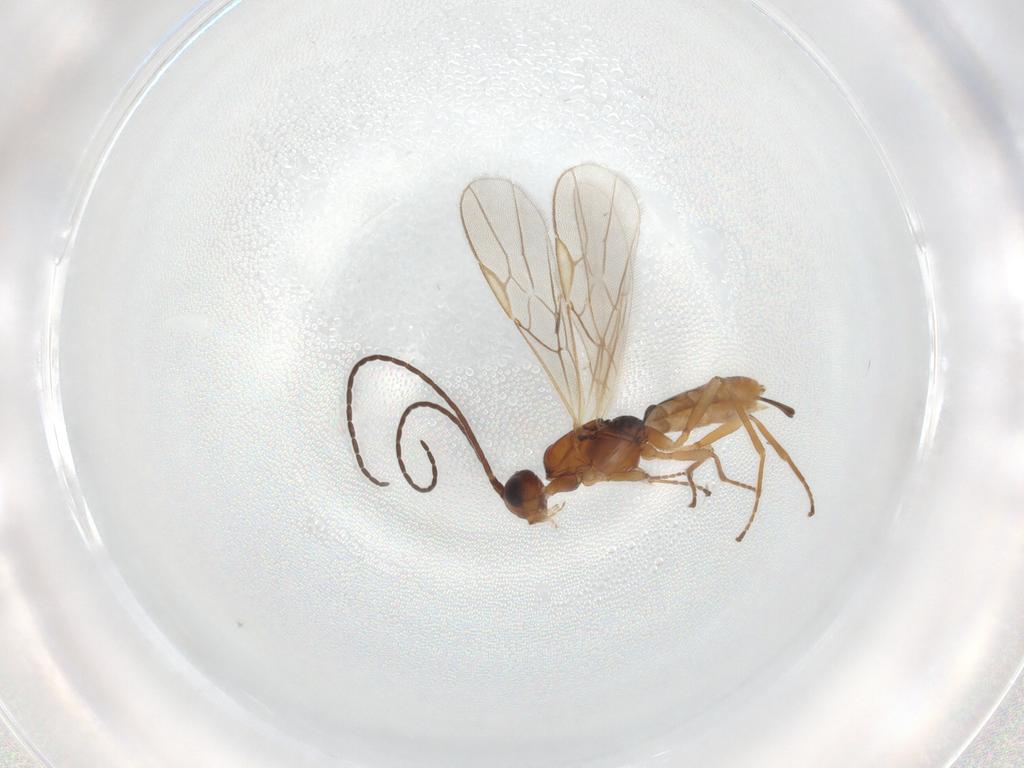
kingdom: Animalia
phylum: Arthropoda
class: Insecta
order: Hymenoptera
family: Braconidae
